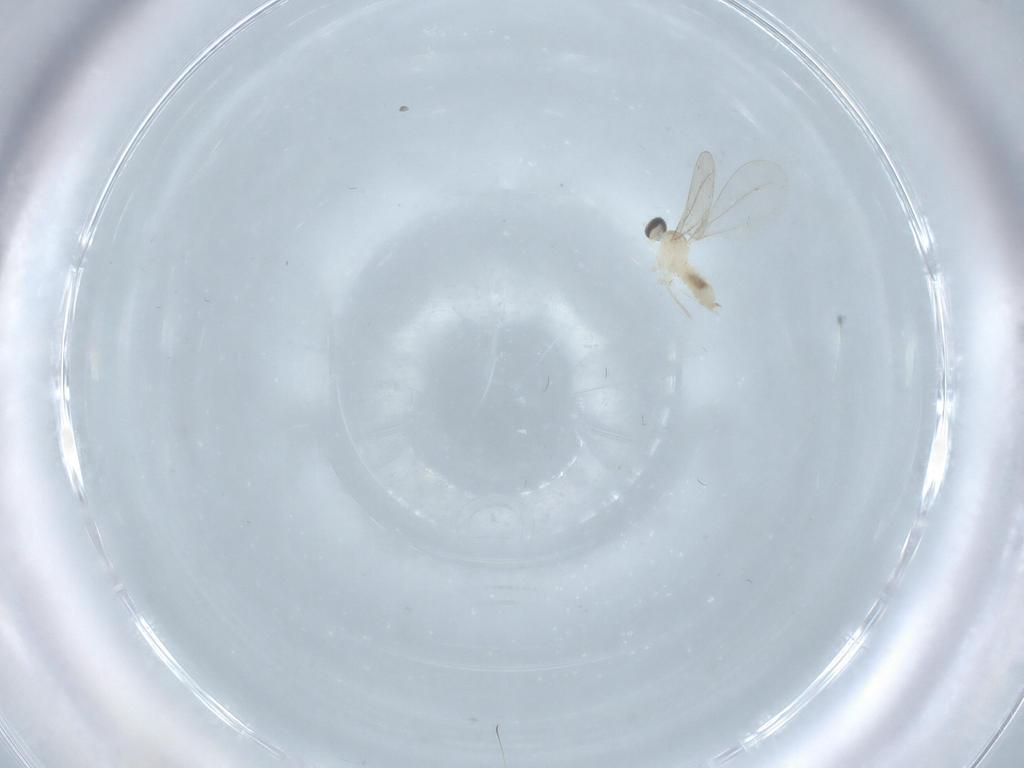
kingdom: Animalia
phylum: Arthropoda
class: Insecta
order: Diptera
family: Cecidomyiidae
